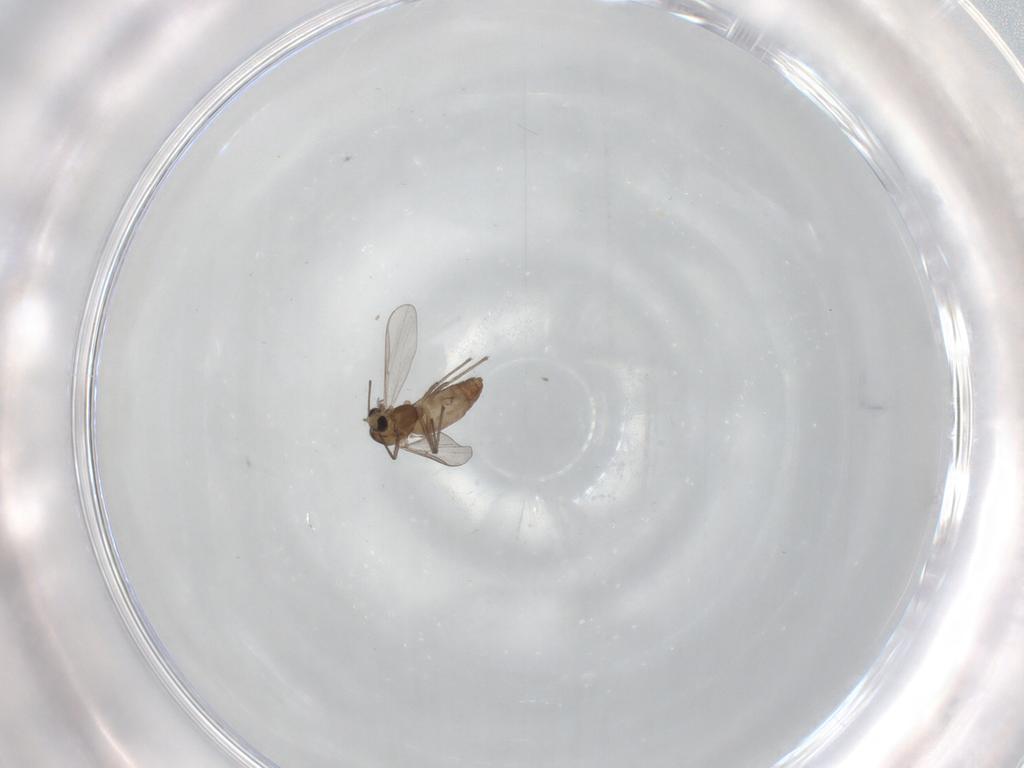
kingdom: Animalia
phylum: Arthropoda
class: Insecta
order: Diptera
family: Chironomidae
